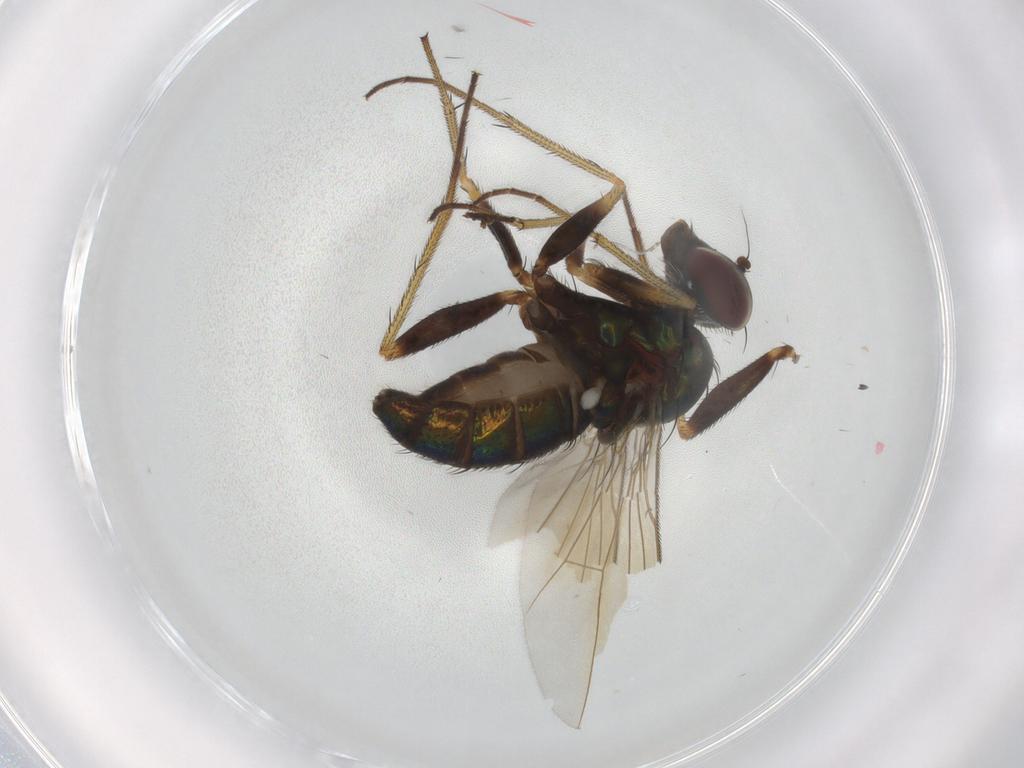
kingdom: Animalia
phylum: Arthropoda
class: Insecta
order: Diptera
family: Dolichopodidae
